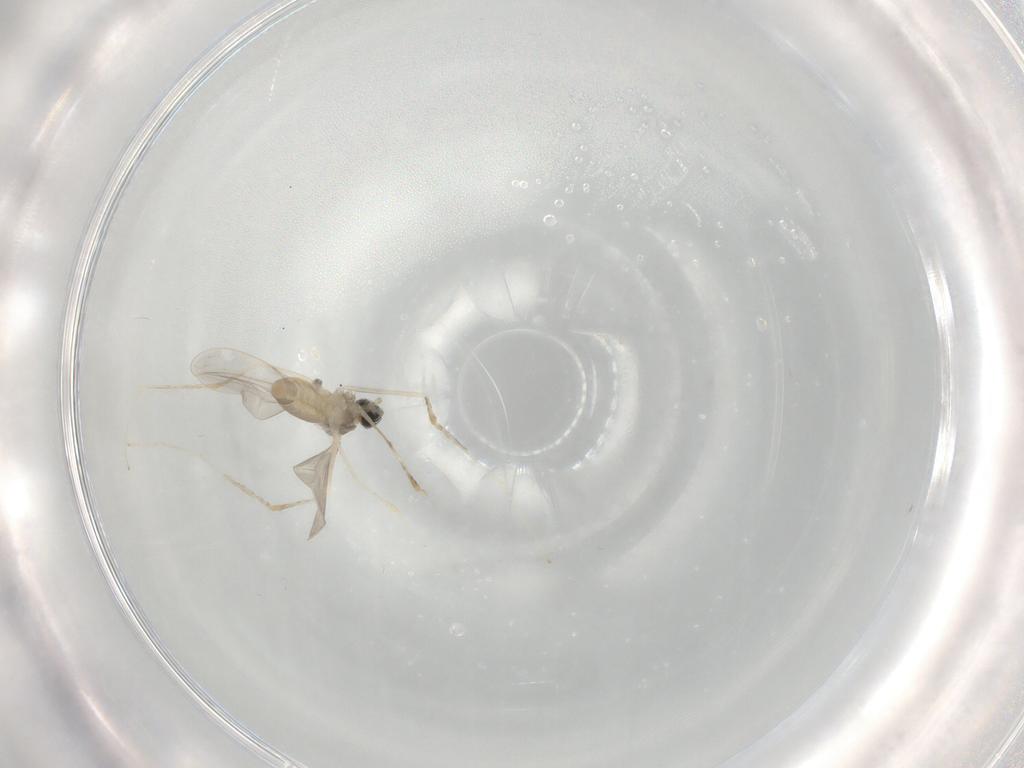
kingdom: Animalia
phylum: Arthropoda
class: Insecta
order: Diptera
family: Cecidomyiidae
